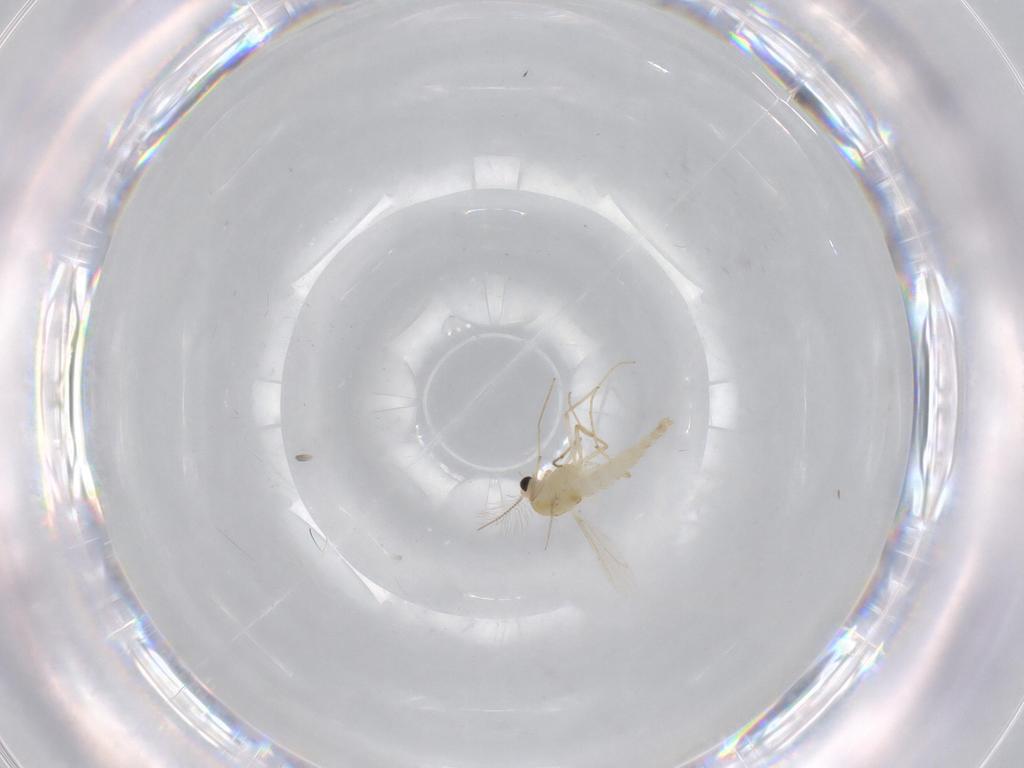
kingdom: Animalia
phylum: Arthropoda
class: Insecta
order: Diptera
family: Chironomidae
